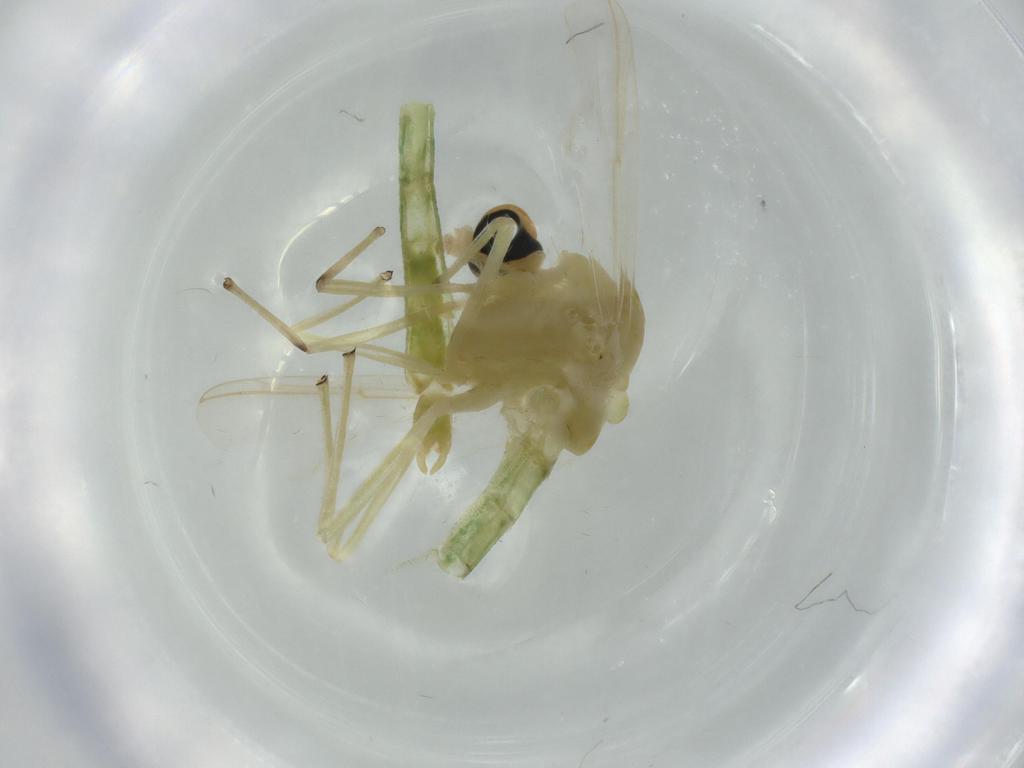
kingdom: Animalia
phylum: Arthropoda
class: Insecta
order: Diptera
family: Chironomidae
